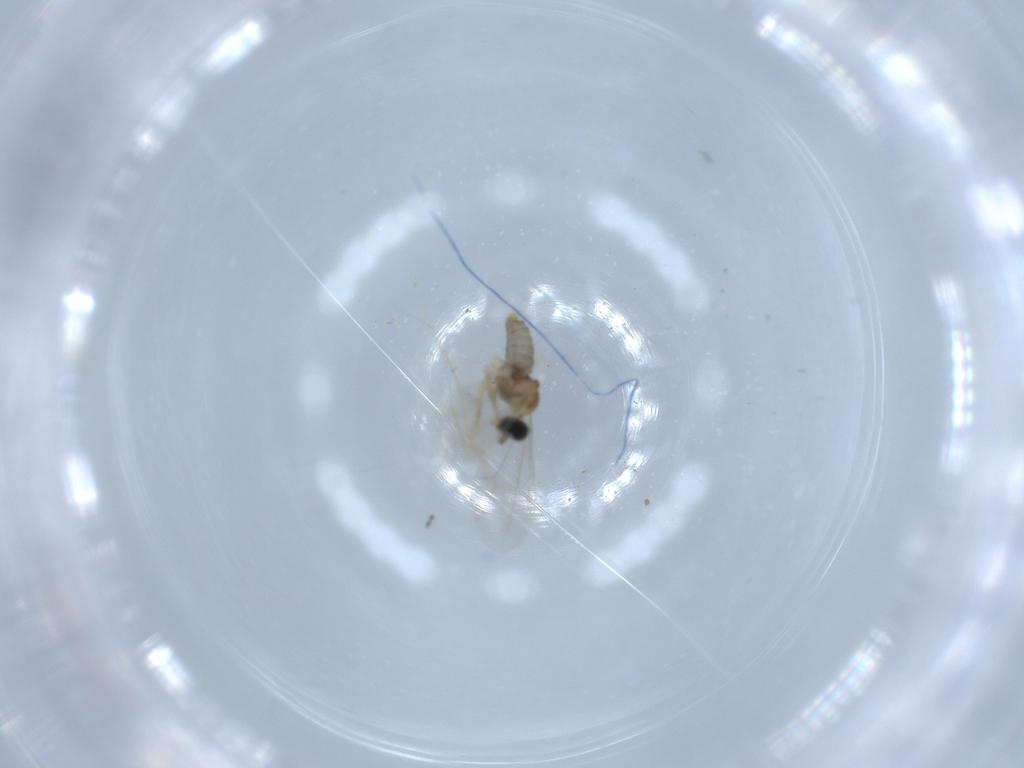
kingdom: Animalia
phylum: Arthropoda
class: Insecta
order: Diptera
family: Cecidomyiidae
